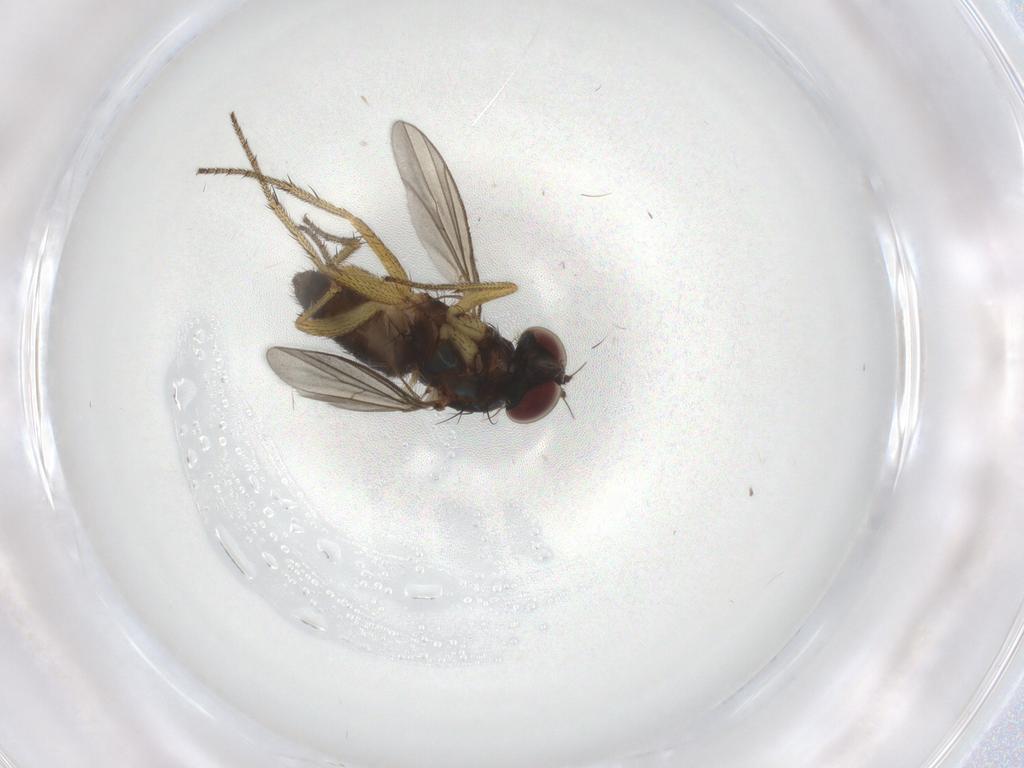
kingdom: Animalia
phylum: Arthropoda
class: Insecta
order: Diptera
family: Chironomidae
